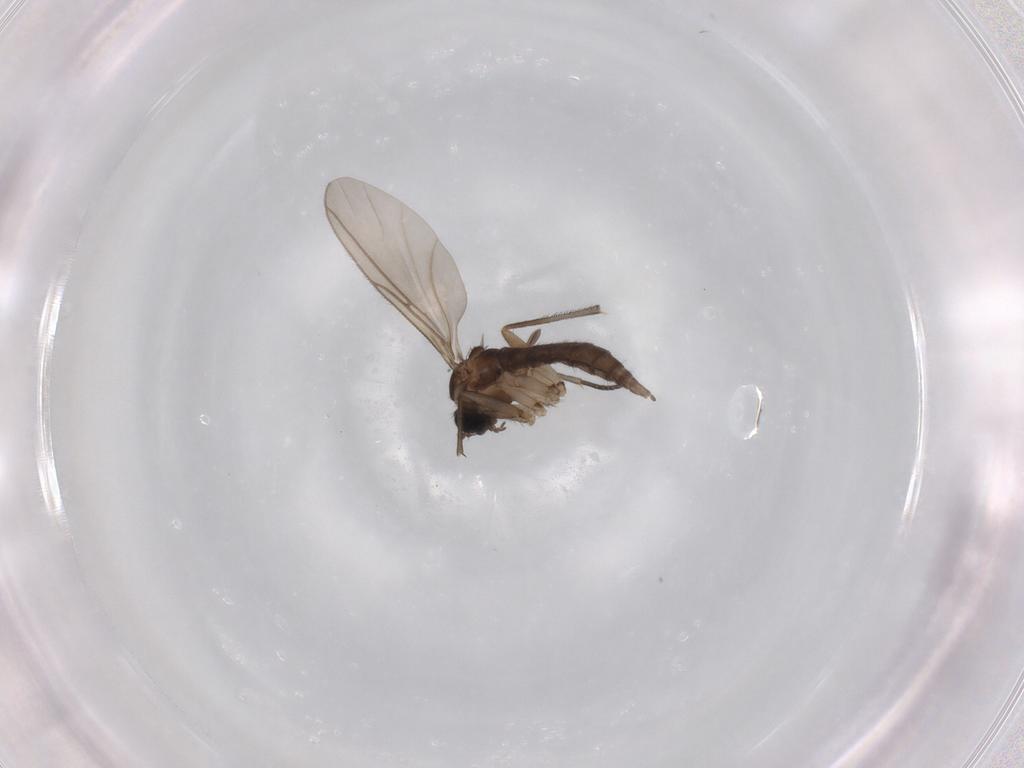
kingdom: Animalia
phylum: Arthropoda
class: Insecta
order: Diptera
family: Sciaridae
